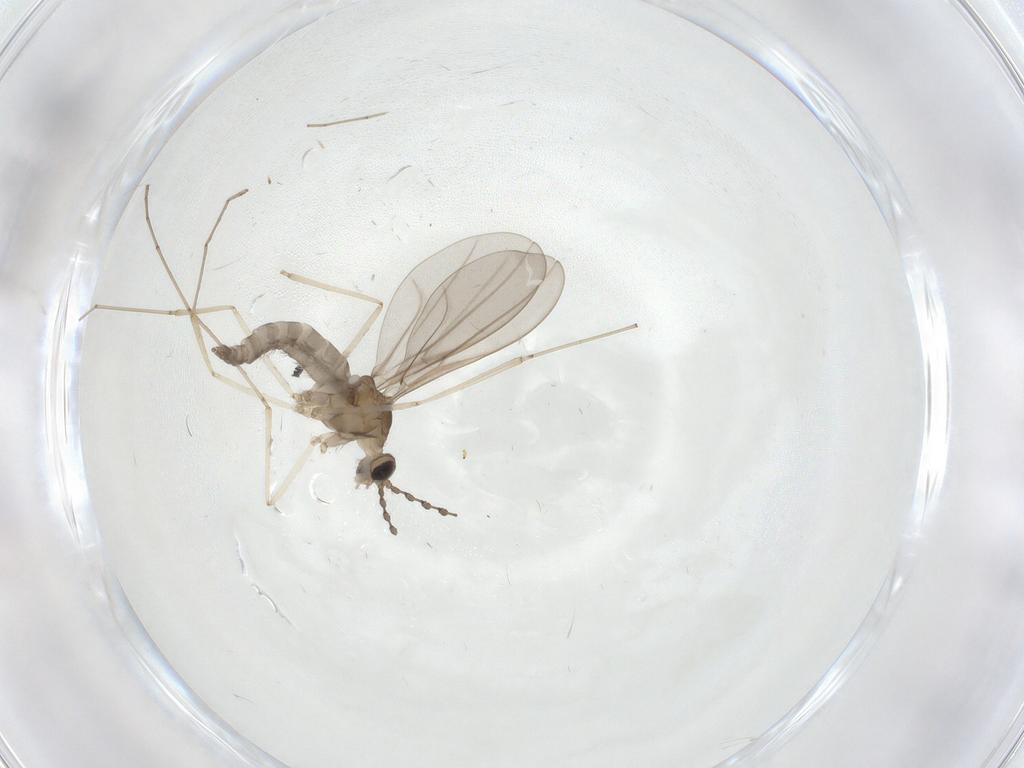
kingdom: Animalia
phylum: Arthropoda
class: Insecta
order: Diptera
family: Cecidomyiidae
